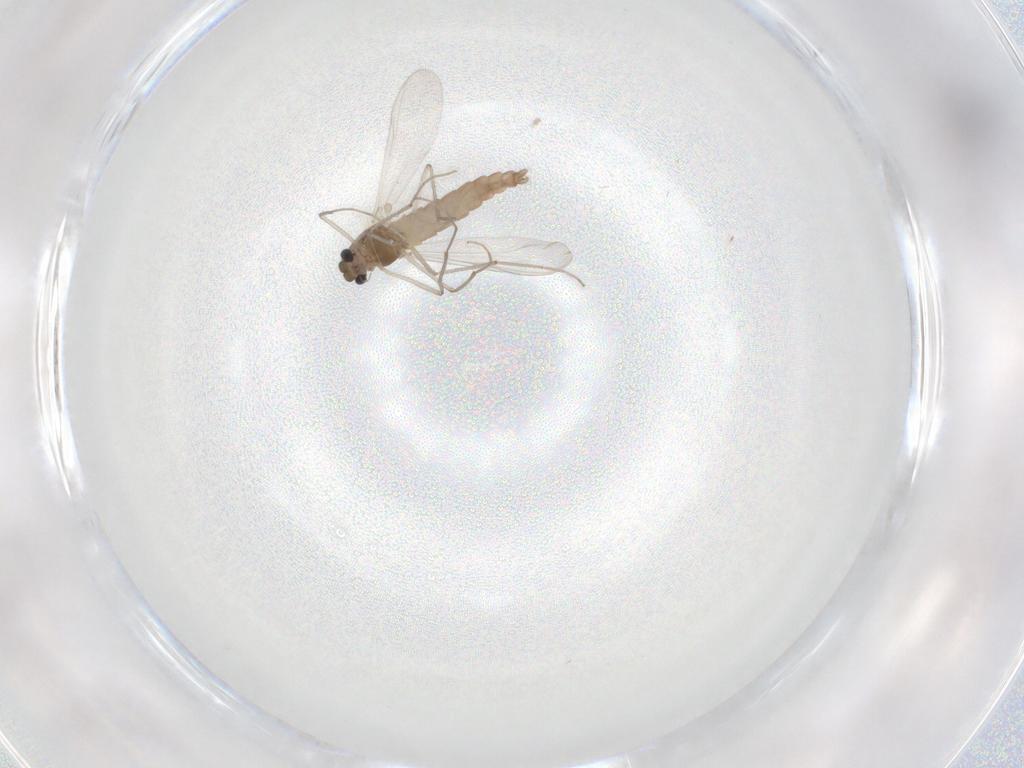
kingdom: Animalia
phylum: Arthropoda
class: Insecta
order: Diptera
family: Chironomidae
